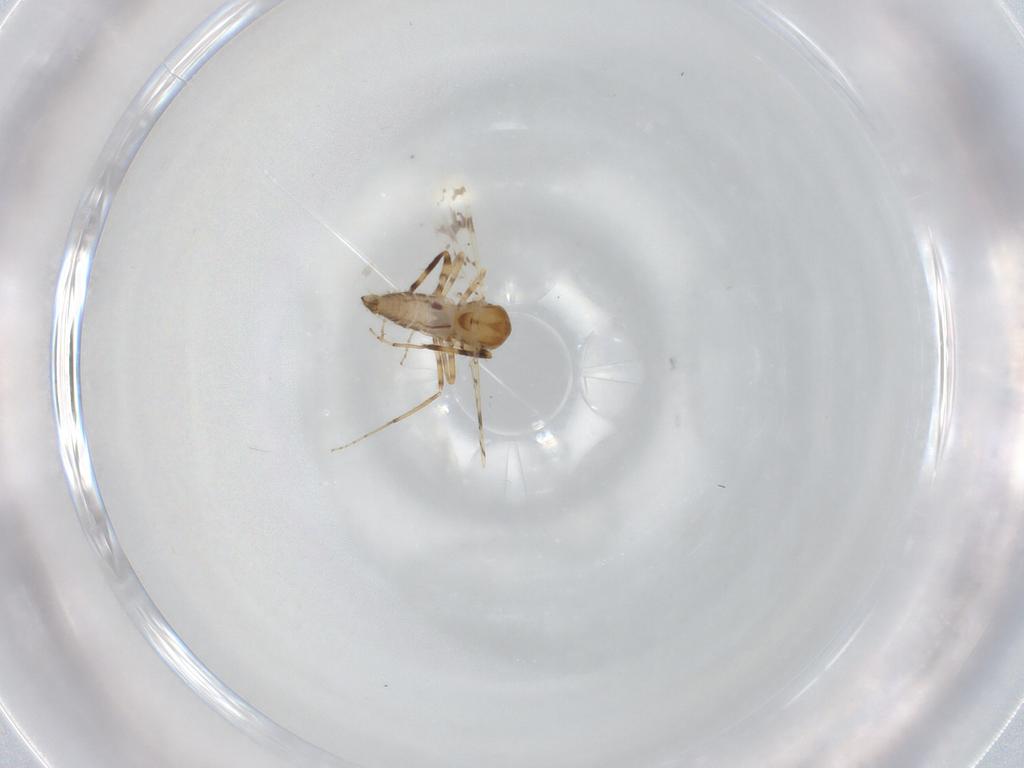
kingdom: Animalia
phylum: Arthropoda
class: Insecta
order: Diptera
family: Ceratopogonidae
